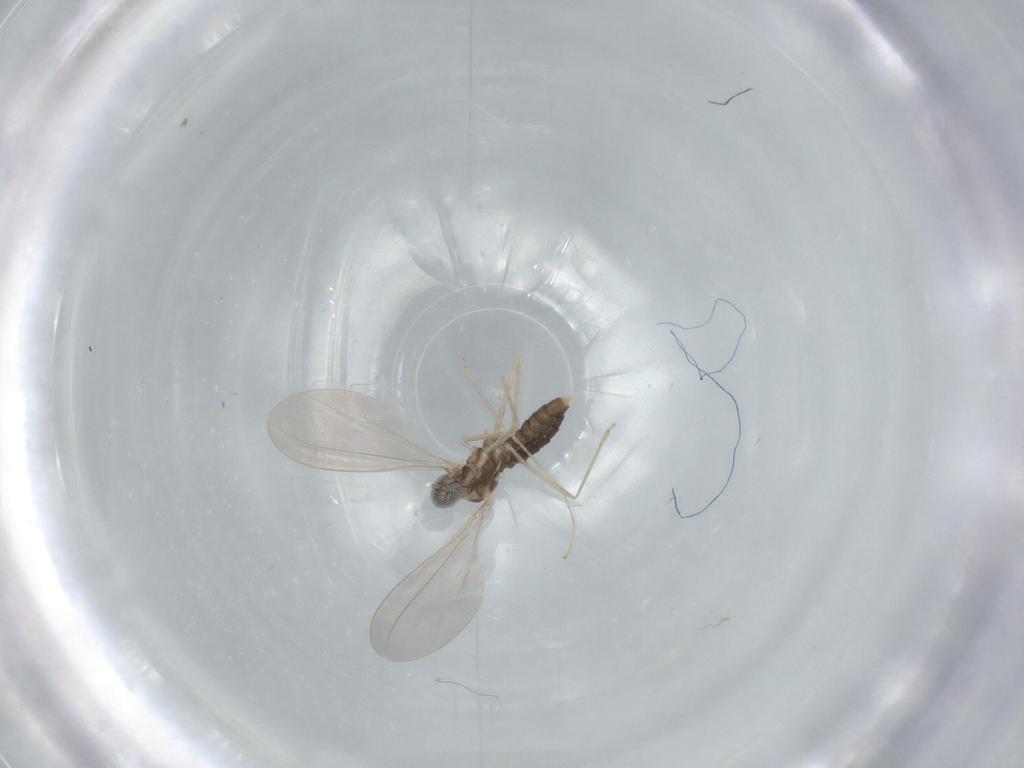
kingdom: Animalia
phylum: Arthropoda
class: Insecta
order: Diptera
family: Cecidomyiidae
